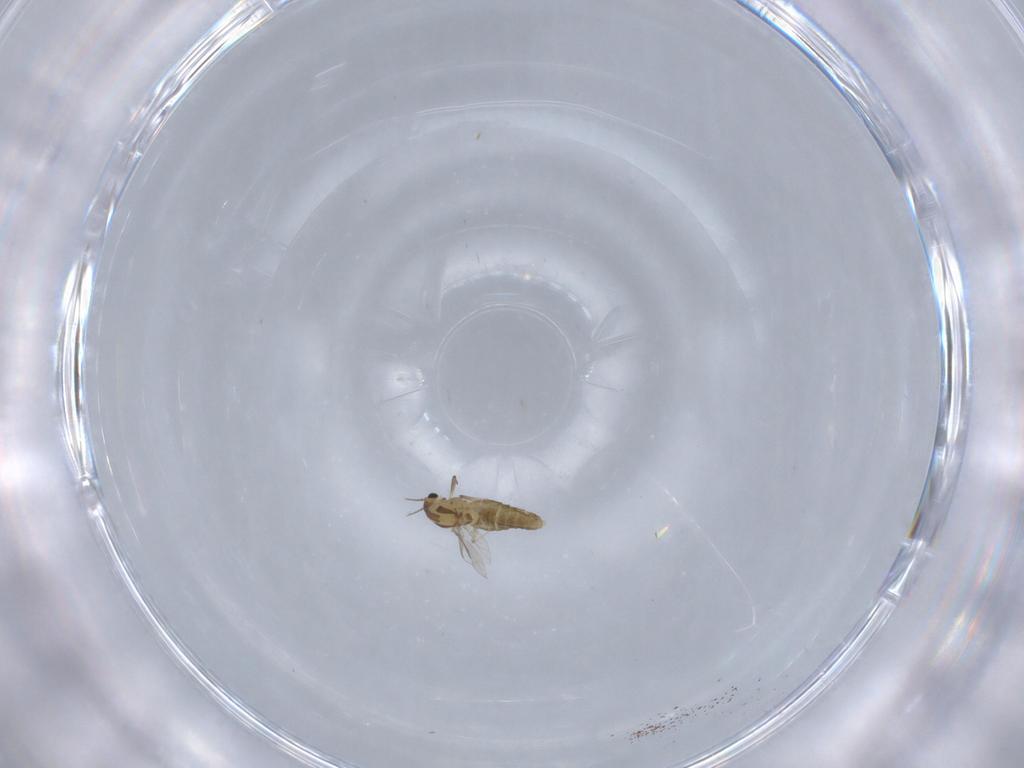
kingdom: Animalia
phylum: Arthropoda
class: Insecta
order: Diptera
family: Chironomidae
